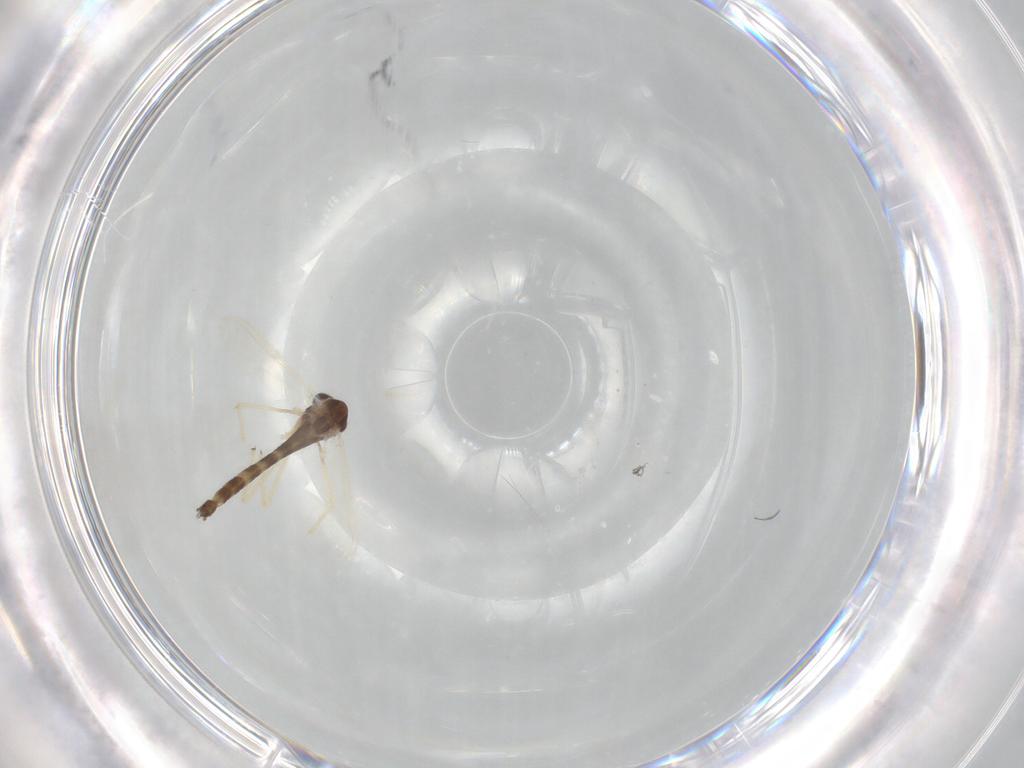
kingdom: Animalia
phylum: Arthropoda
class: Insecta
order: Diptera
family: Chironomidae
